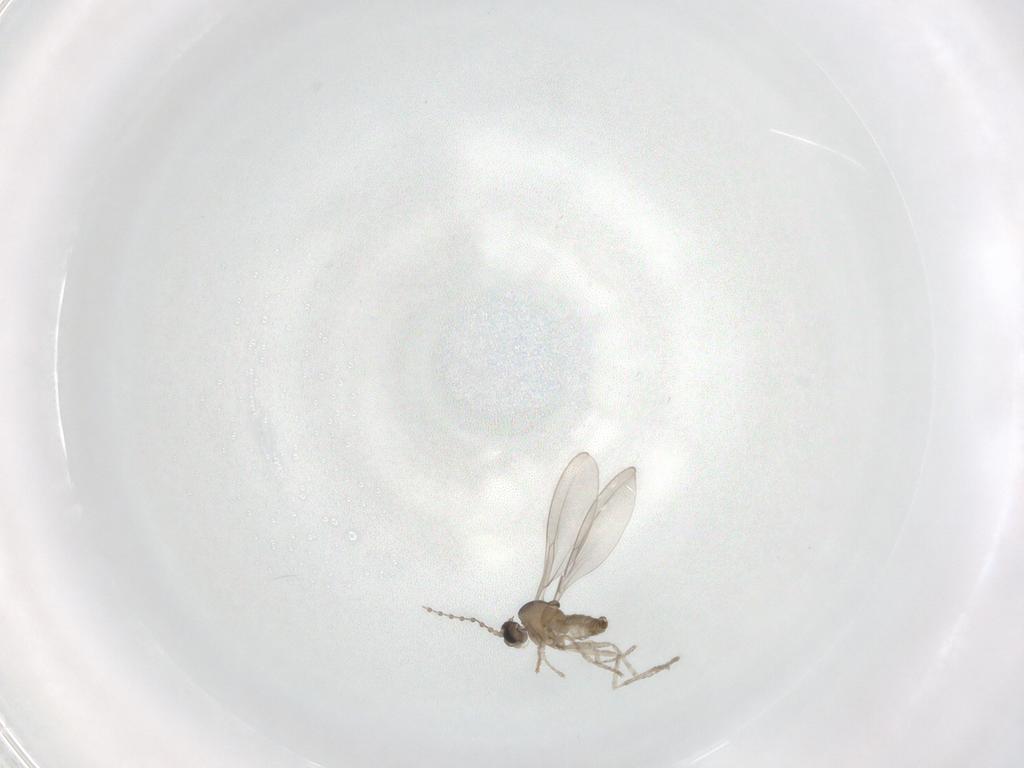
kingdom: Animalia
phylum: Arthropoda
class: Insecta
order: Diptera
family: Cecidomyiidae
